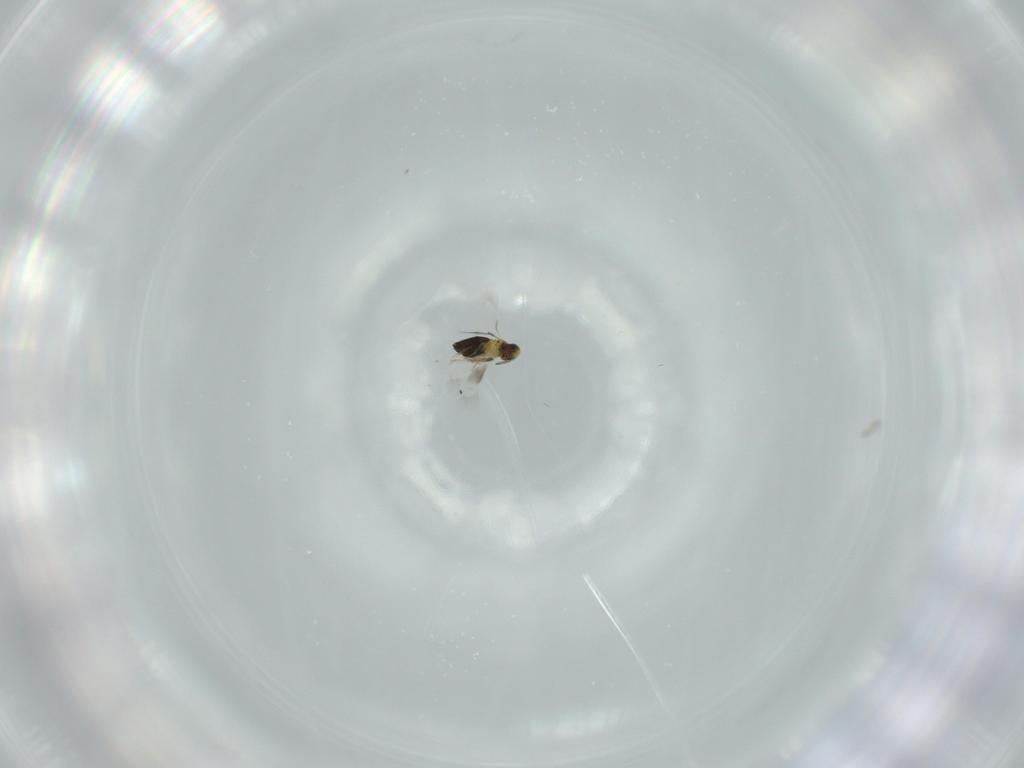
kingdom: Animalia
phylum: Arthropoda
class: Insecta
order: Hymenoptera
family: Signiphoridae
